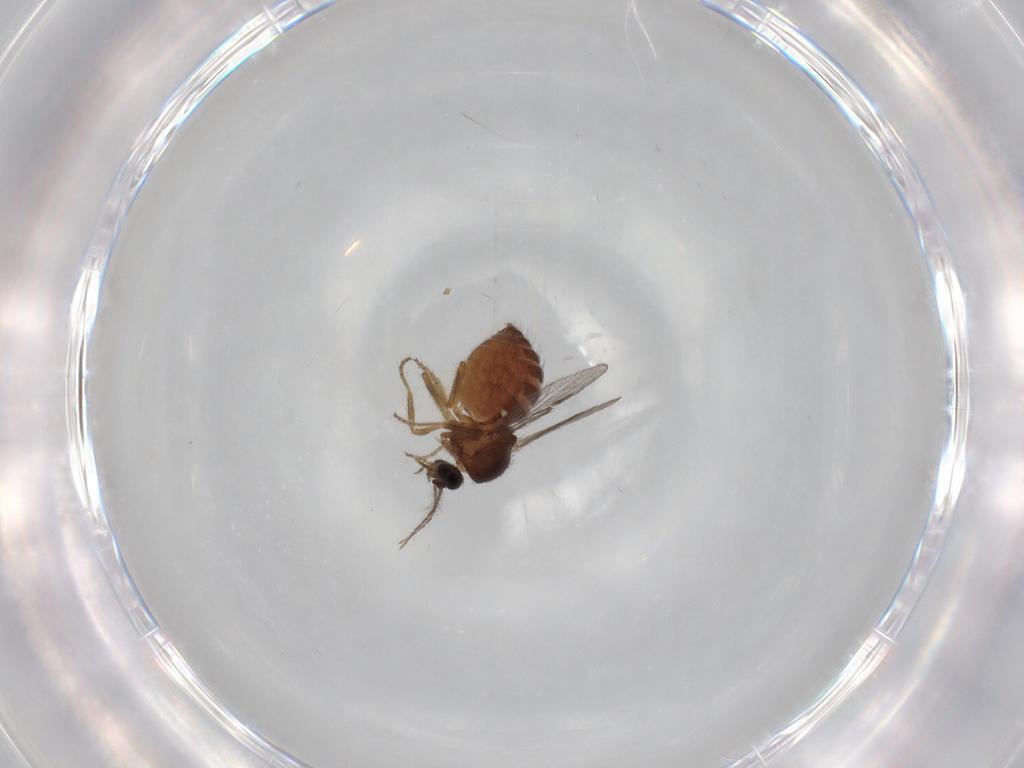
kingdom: Animalia
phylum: Arthropoda
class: Insecta
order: Diptera
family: Ceratopogonidae
